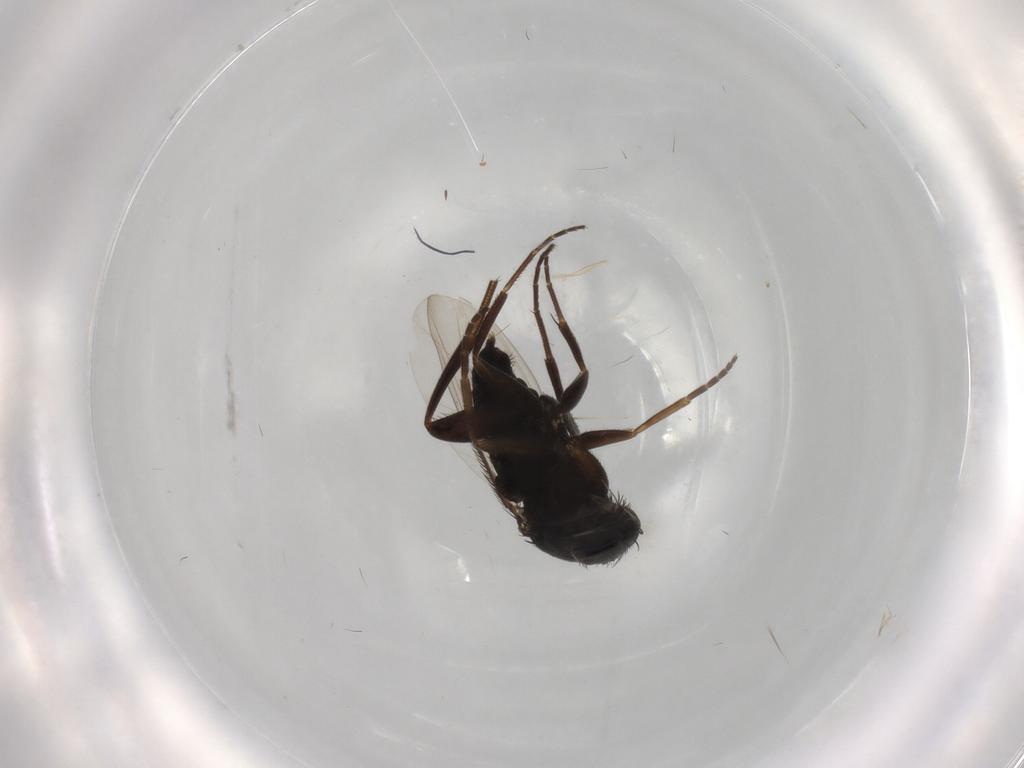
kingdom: Animalia
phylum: Arthropoda
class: Insecta
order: Diptera
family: Phoridae
